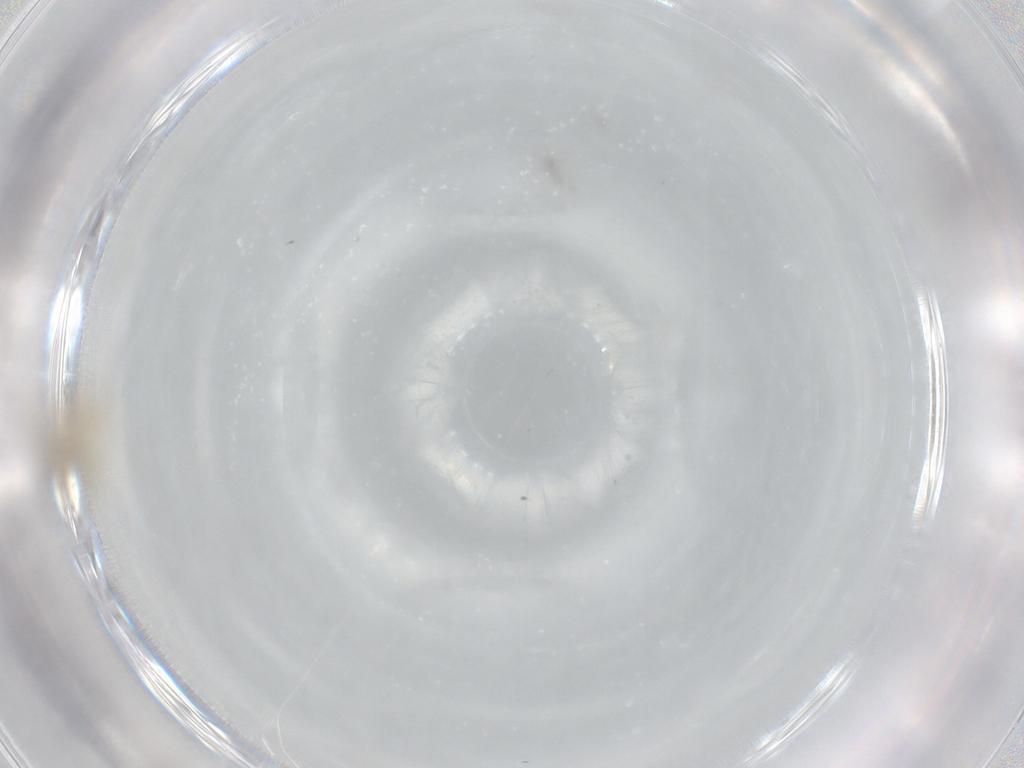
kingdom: Animalia
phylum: Arthropoda
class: Insecta
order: Diptera
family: Cecidomyiidae
